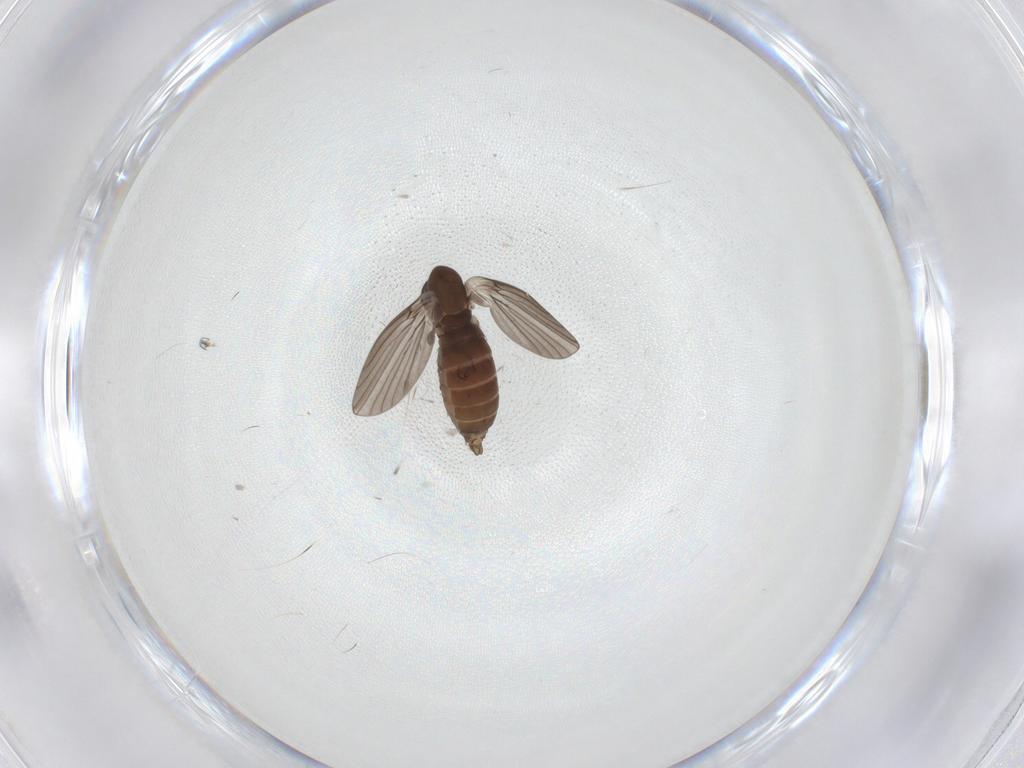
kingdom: Animalia
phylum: Arthropoda
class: Insecta
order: Diptera
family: Limoniidae
